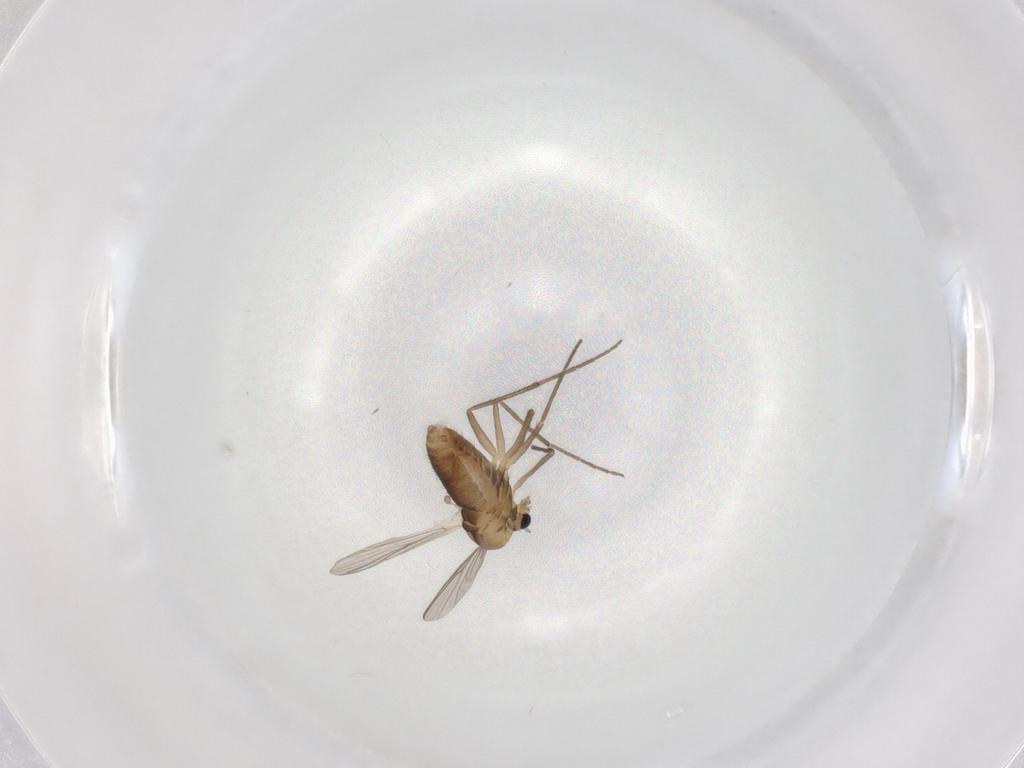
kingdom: Animalia
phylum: Arthropoda
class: Insecta
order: Diptera
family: Chironomidae
